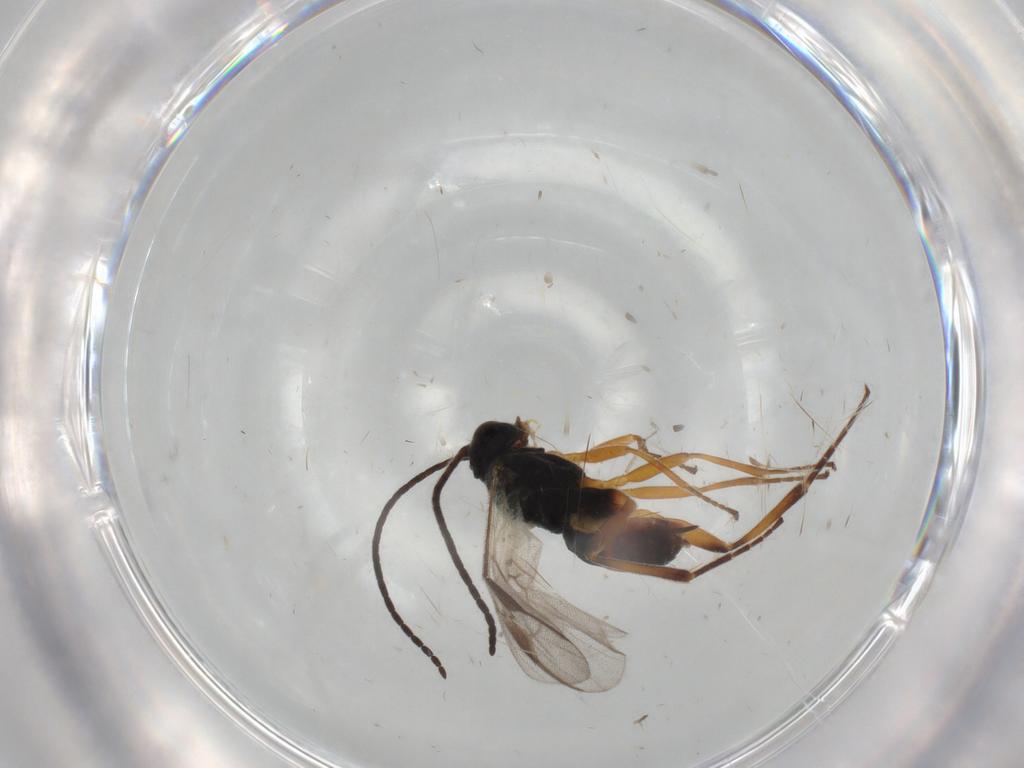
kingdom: Animalia
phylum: Arthropoda
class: Insecta
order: Hymenoptera
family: Braconidae
